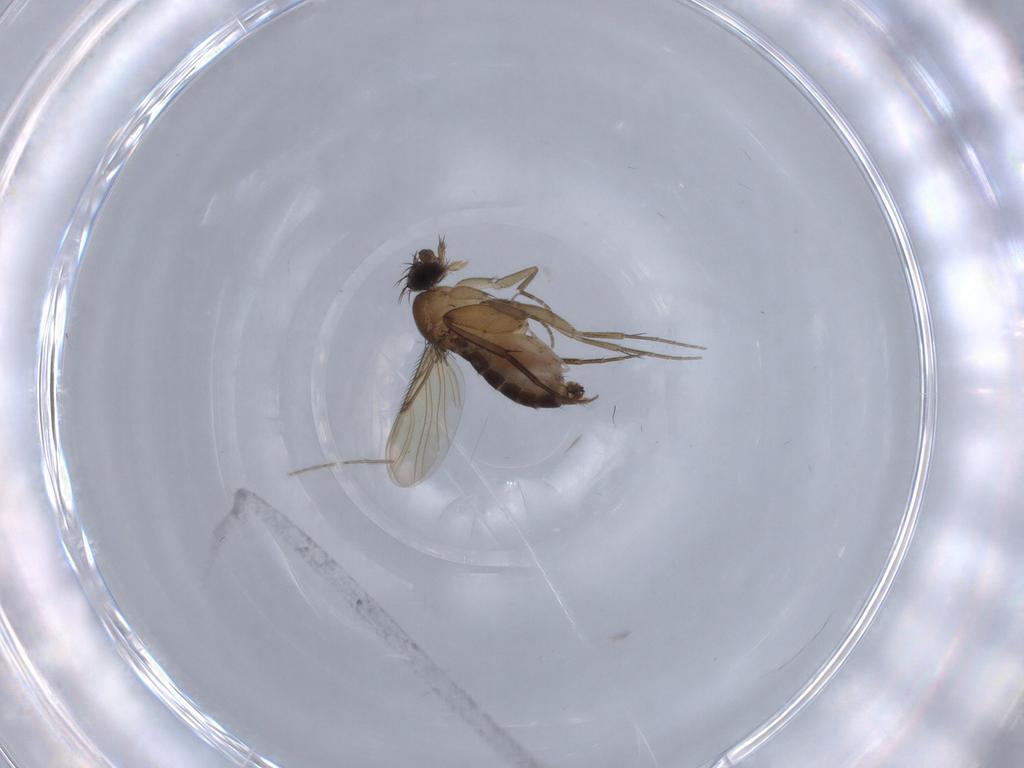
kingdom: Animalia
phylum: Arthropoda
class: Insecta
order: Diptera
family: Phoridae
